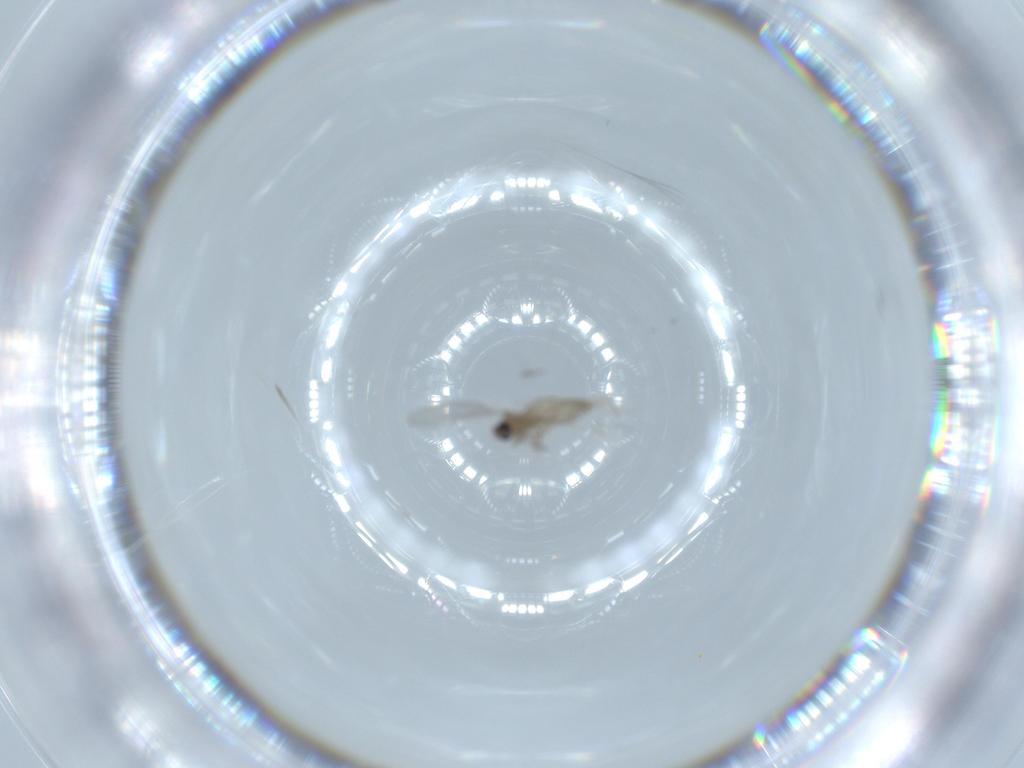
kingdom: Animalia
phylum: Arthropoda
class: Insecta
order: Diptera
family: Cecidomyiidae
